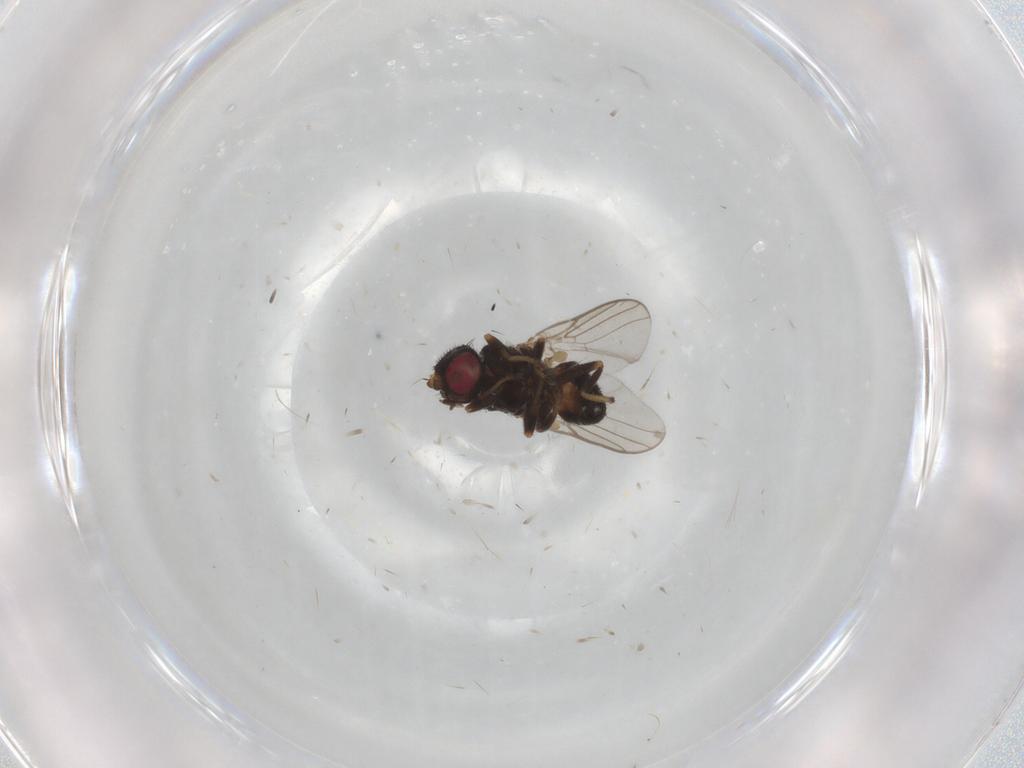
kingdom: Animalia
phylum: Arthropoda
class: Insecta
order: Diptera
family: Chloropidae
